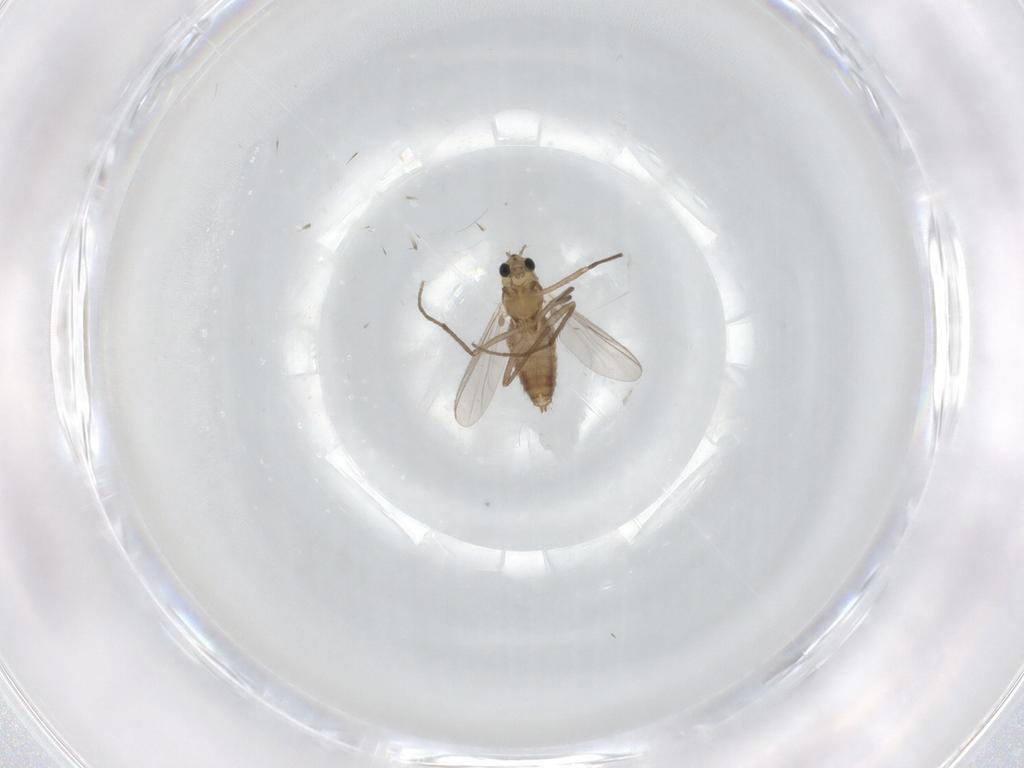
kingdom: Animalia
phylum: Arthropoda
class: Insecta
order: Diptera
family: Chironomidae
